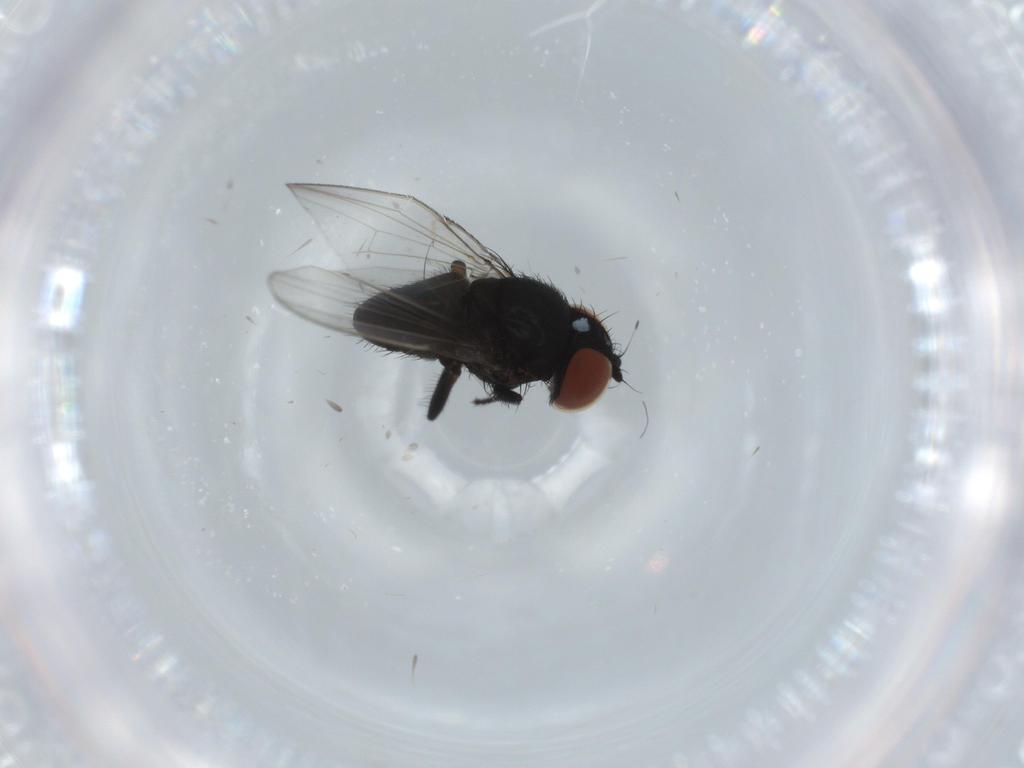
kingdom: Animalia
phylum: Arthropoda
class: Insecta
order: Diptera
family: Milichiidae
